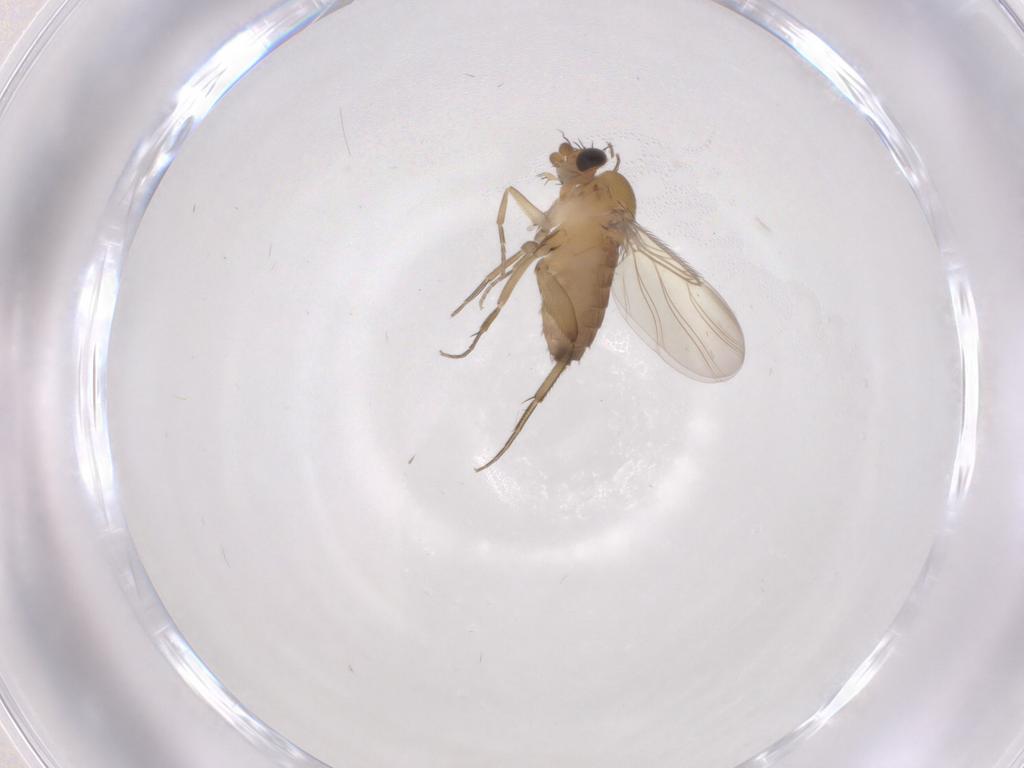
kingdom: Animalia
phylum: Arthropoda
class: Insecta
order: Diptera
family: Phoridae
